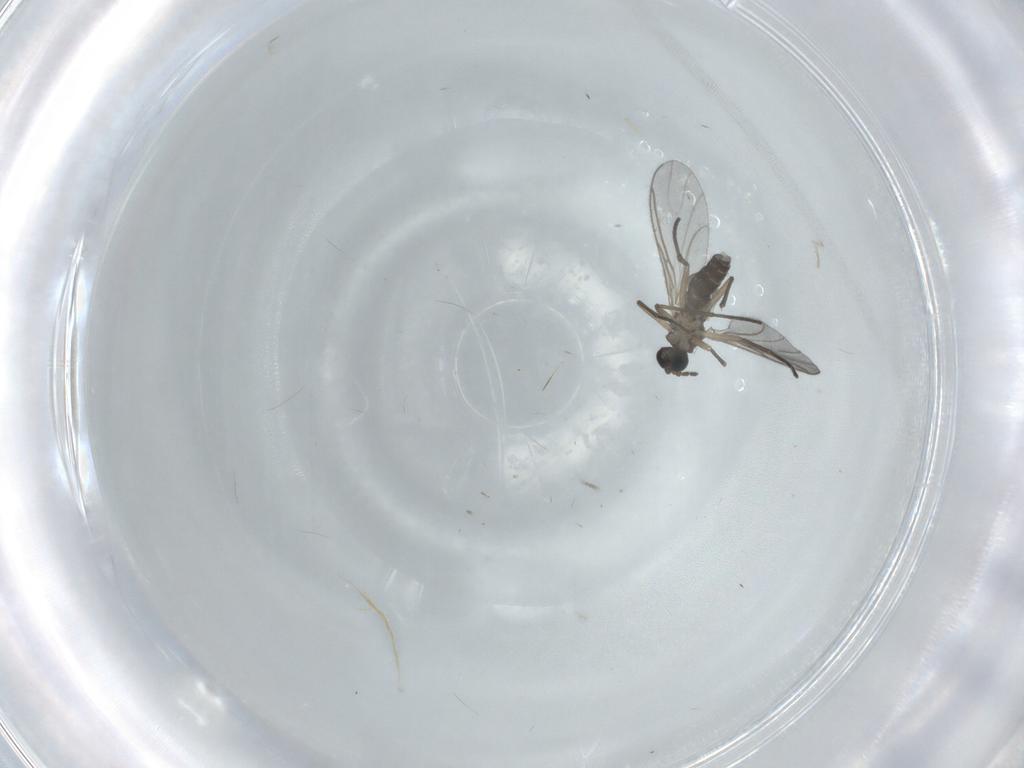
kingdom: Animalia
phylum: Arthropoda
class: Insecta
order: Diptera
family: Sciaridae
